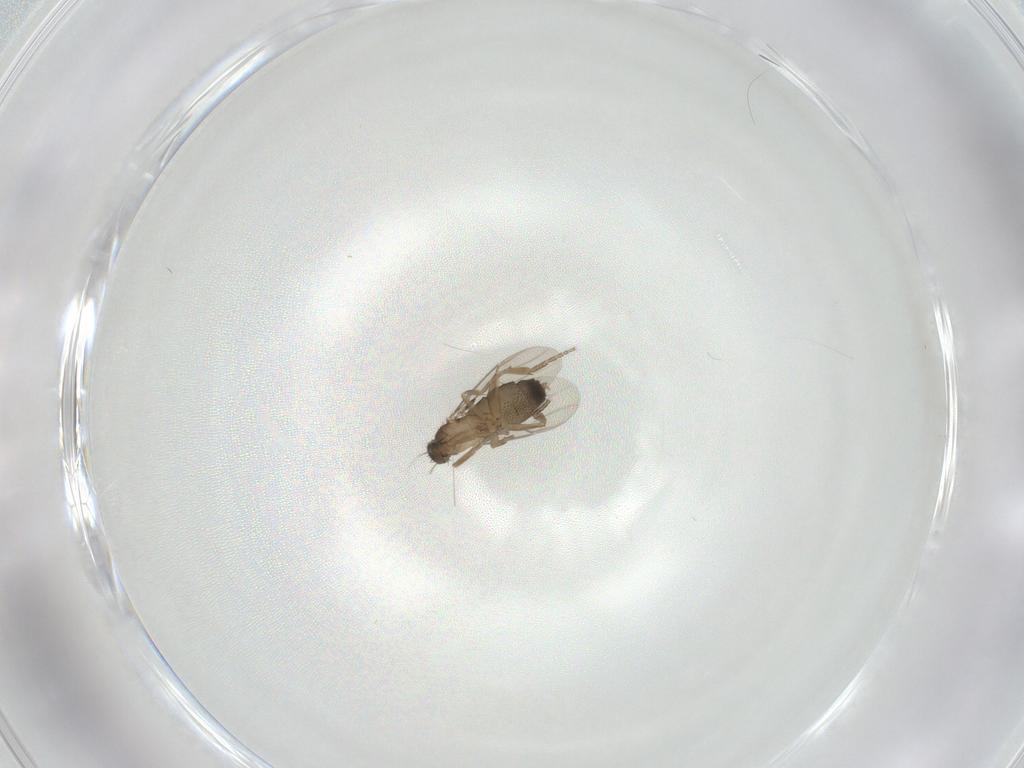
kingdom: Animalia
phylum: Arthropoda
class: Insecta
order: Diptera
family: Phoridae
